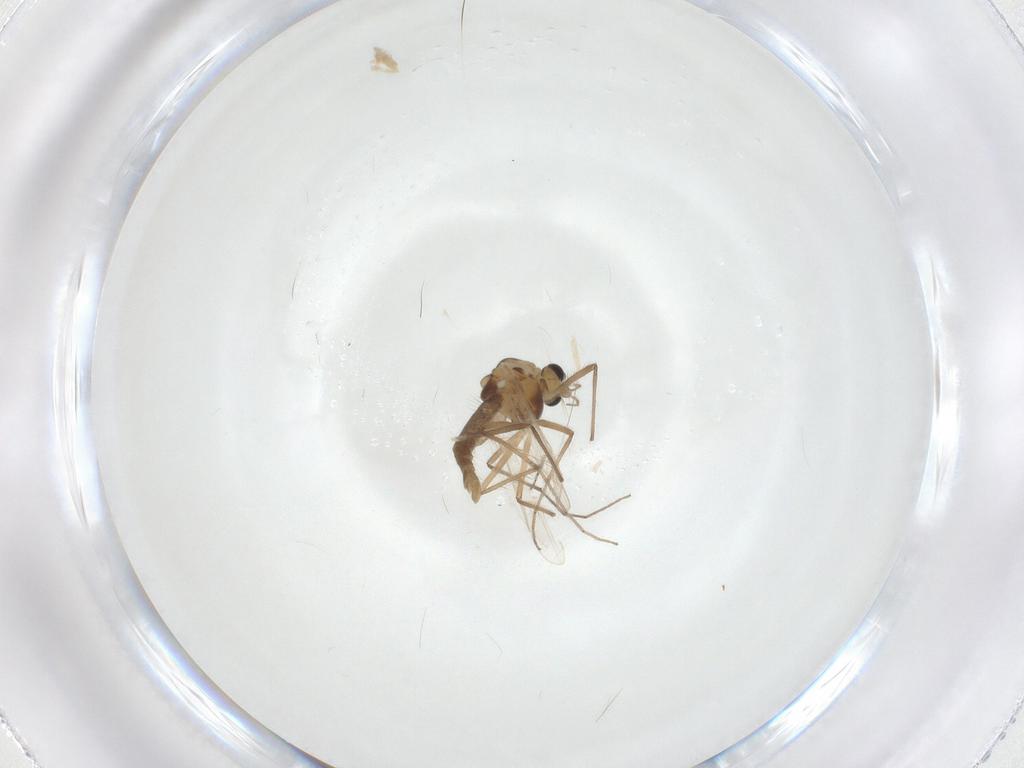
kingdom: Animalia
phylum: Arthropoda
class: Insecta
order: Diptera
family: Chironomidae
